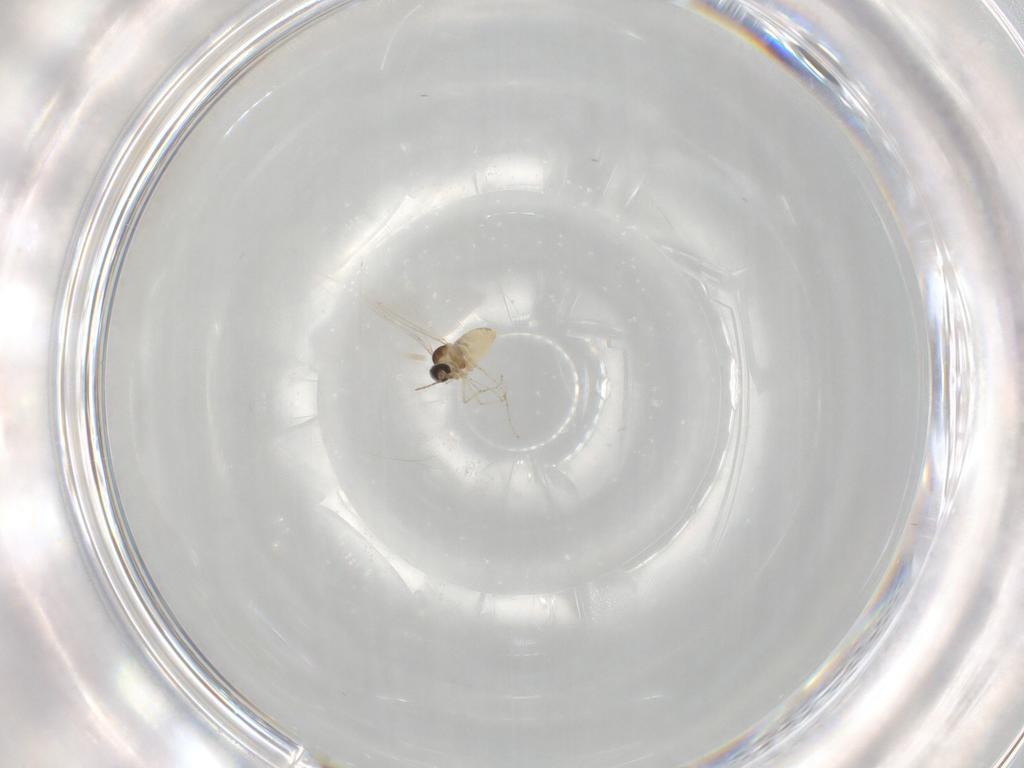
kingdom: Animalia
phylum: Arthropoda
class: Insecta
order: Diptera
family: Cecidomyiidae
